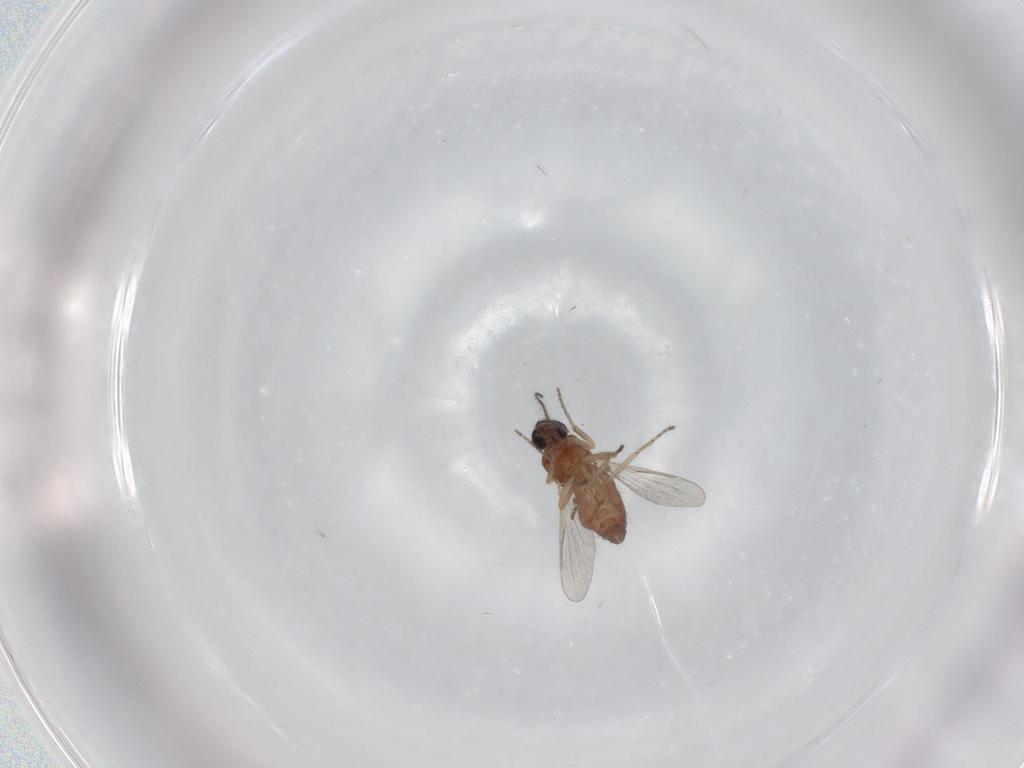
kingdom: Animalia
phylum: Arthropoda
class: Insecta
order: Diptera
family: Ceratopogonidae
